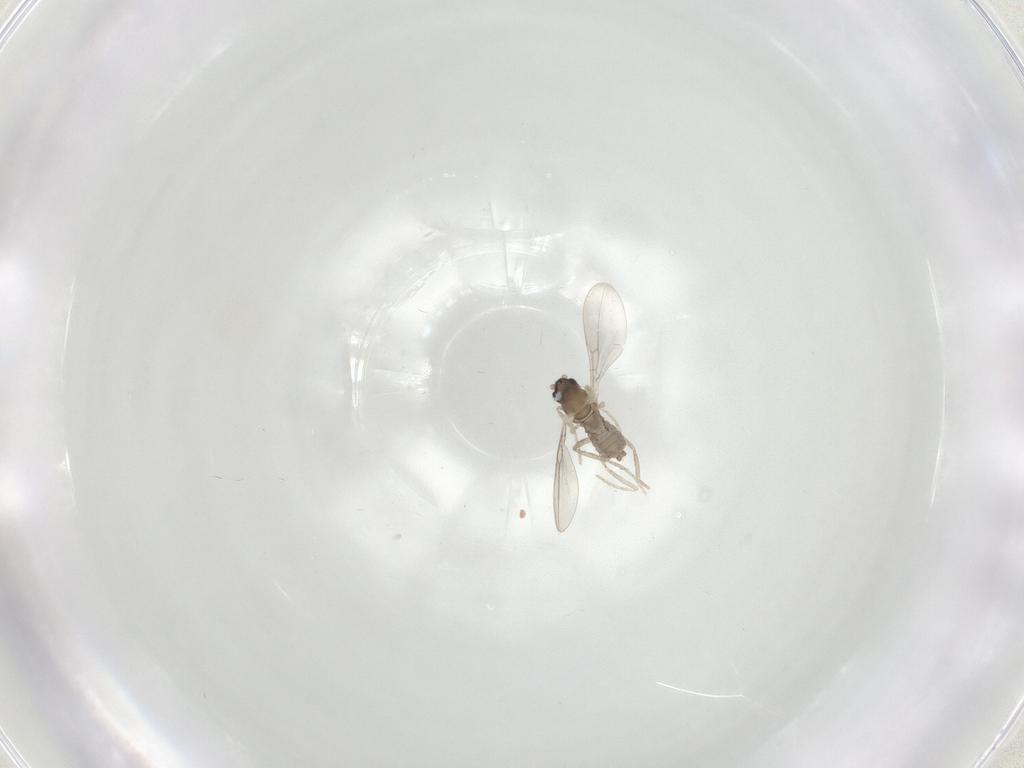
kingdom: Animalia
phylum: Arthropoda
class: Insecta
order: Diptera
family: Cecidomyiidae
